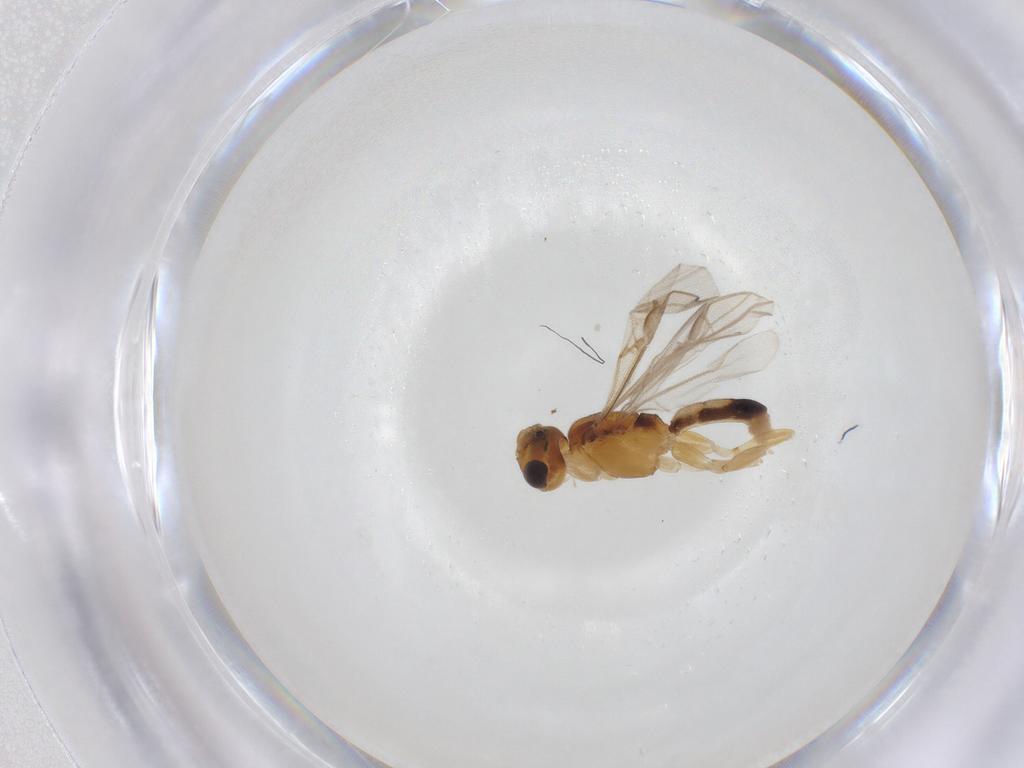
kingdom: Animalia
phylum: Arthropoda
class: Insecta
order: Hymenoptera
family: Braconidae
